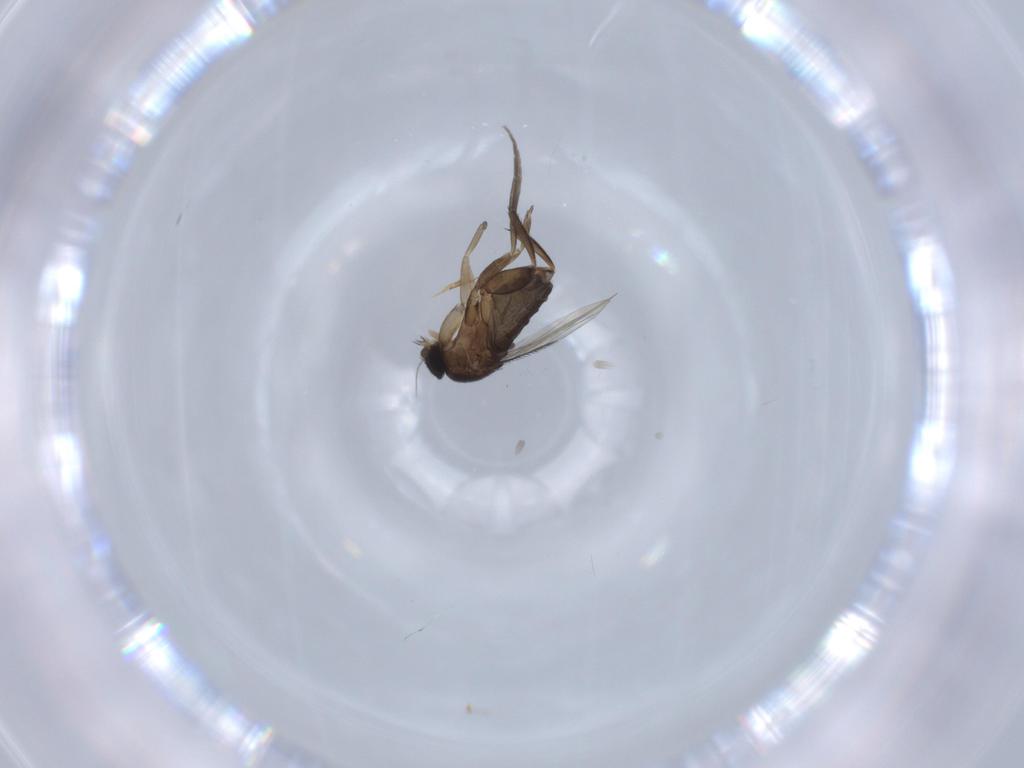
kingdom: Animalia
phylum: Arthropoda
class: Insecta
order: Diptera
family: Phoridae
